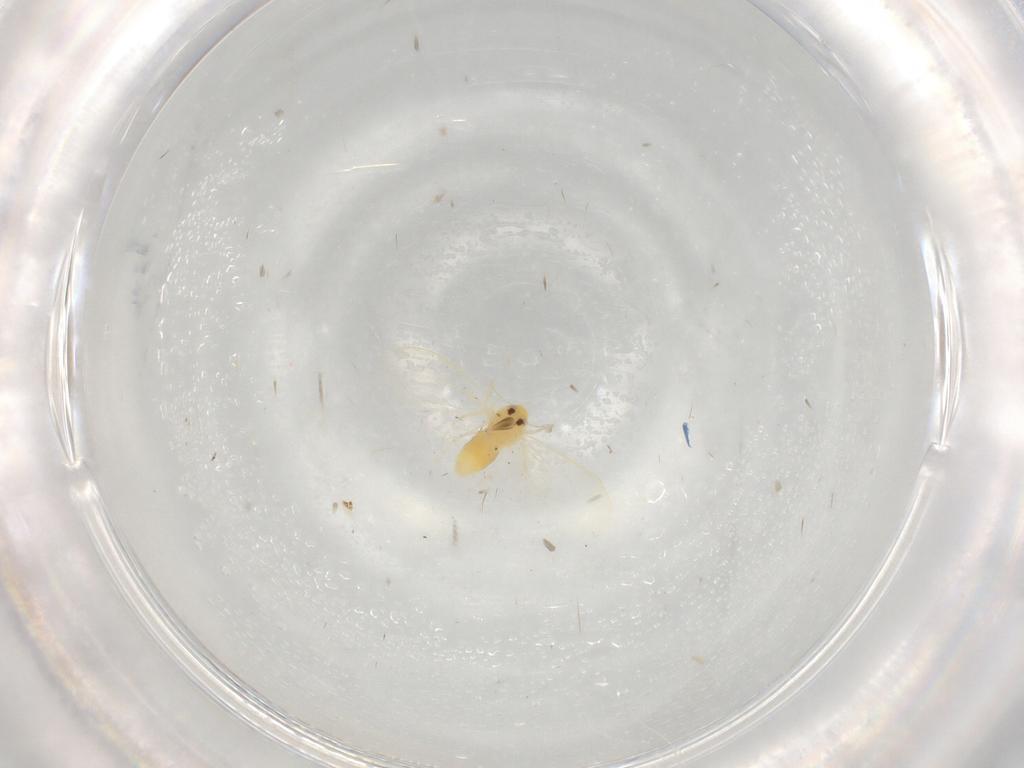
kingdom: Animalia
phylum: Arthropoda
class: Insecta
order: Hemiptera
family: Aleyrodidae
